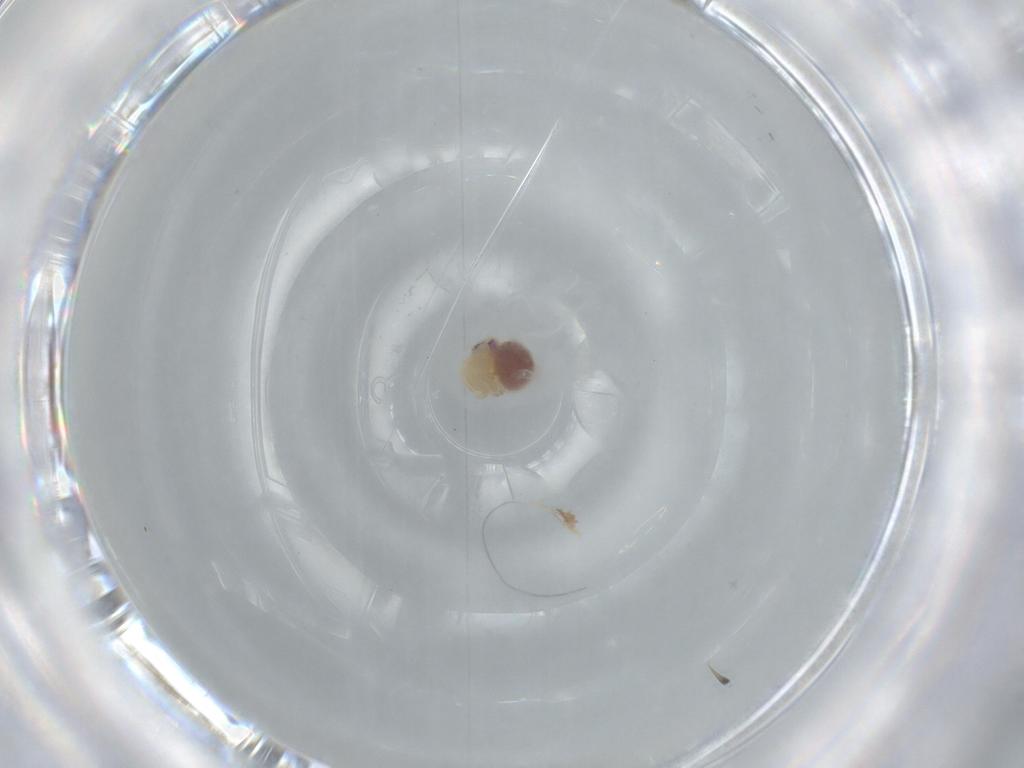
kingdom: Animalia
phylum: Arthropoda
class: Arachnida
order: Araneae
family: Pholcidae
